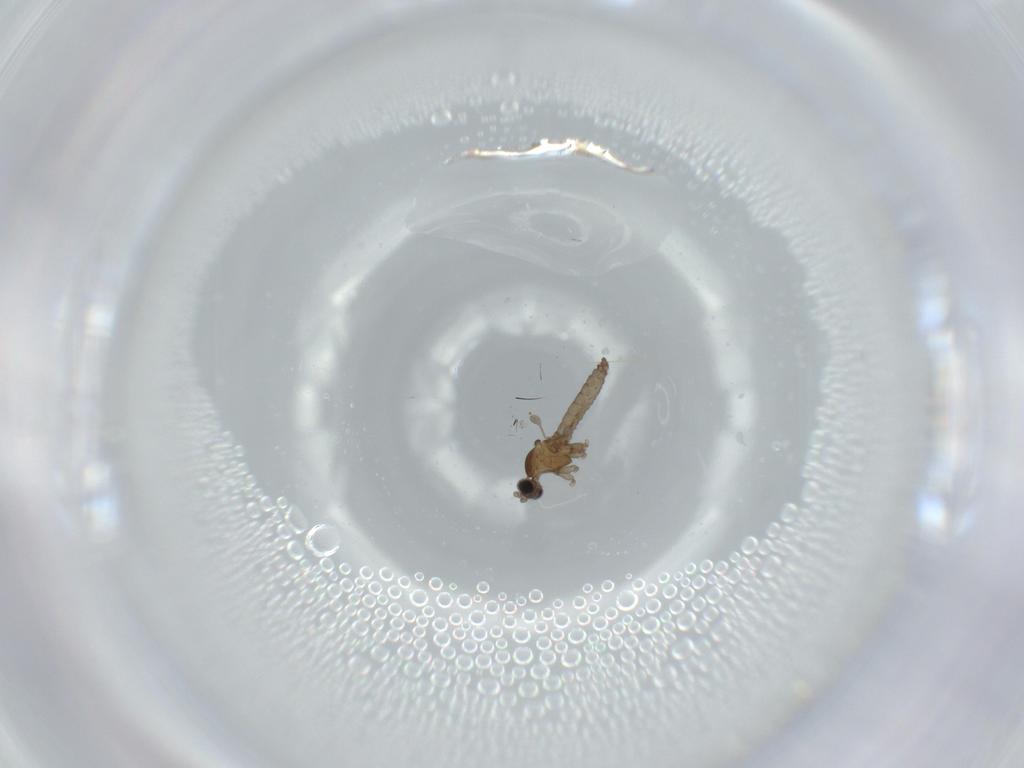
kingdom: Animalia
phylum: Arthropoda
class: Insecta
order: Diptera
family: Cecidomyiidae
